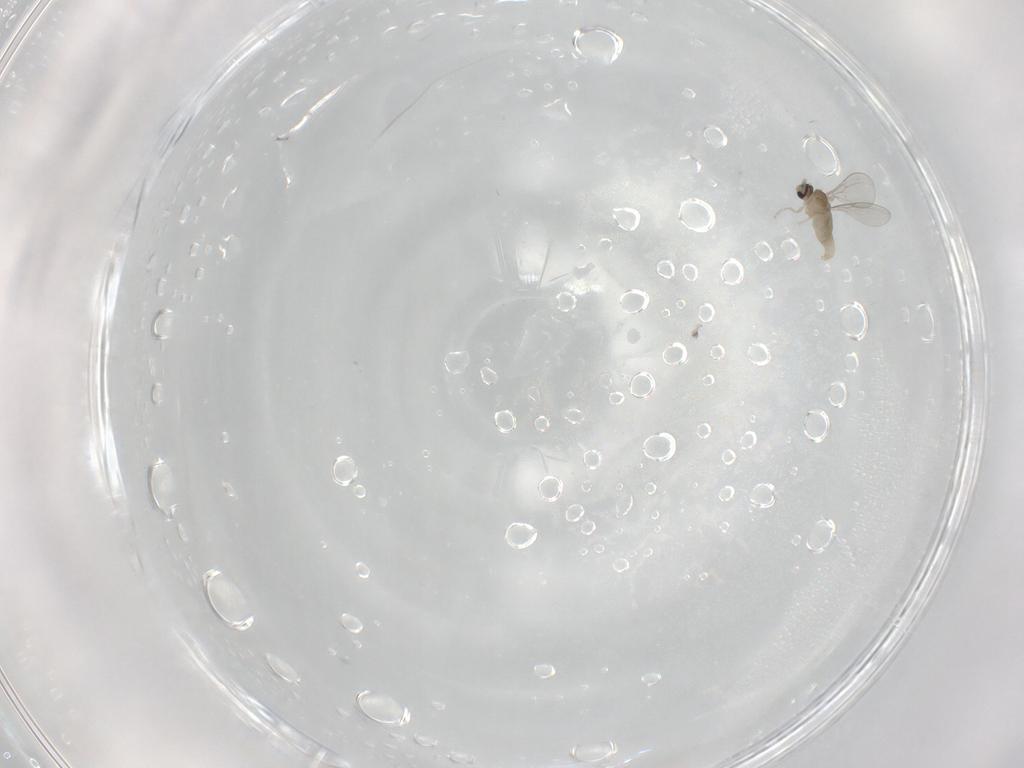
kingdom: Animalia
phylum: Arthropoda
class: Insecta
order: Diptera
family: Cecidomyiidae
